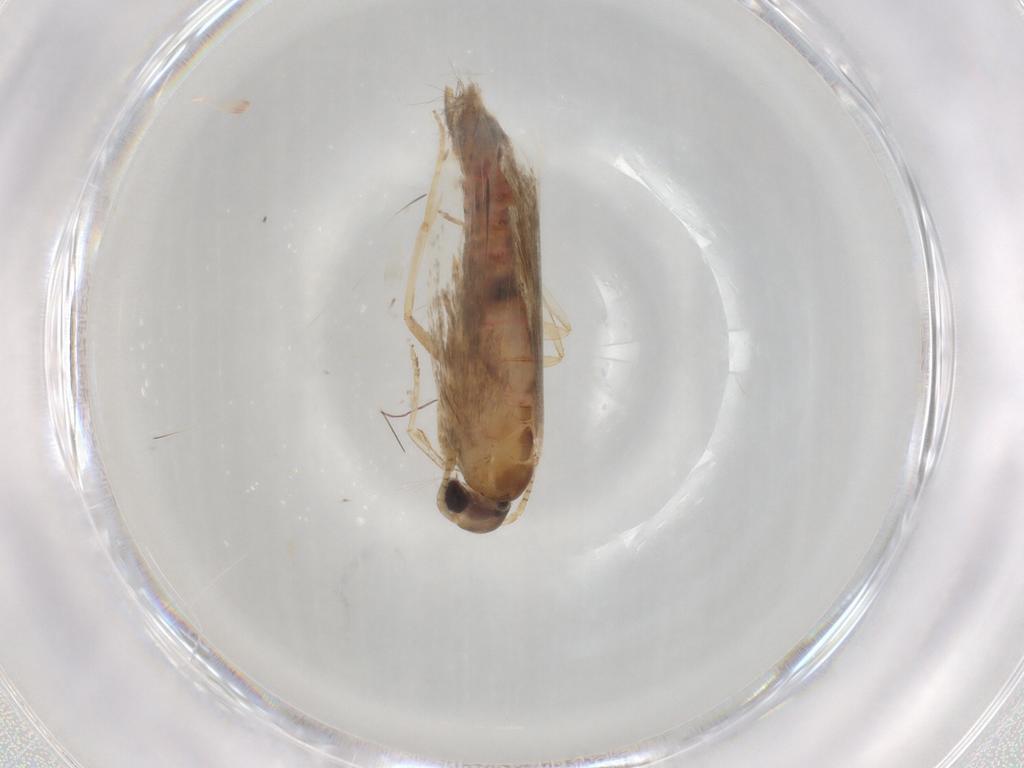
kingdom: Animalia
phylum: Arthropoda
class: Insecta
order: Lepidoptera
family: Gelechiidae
